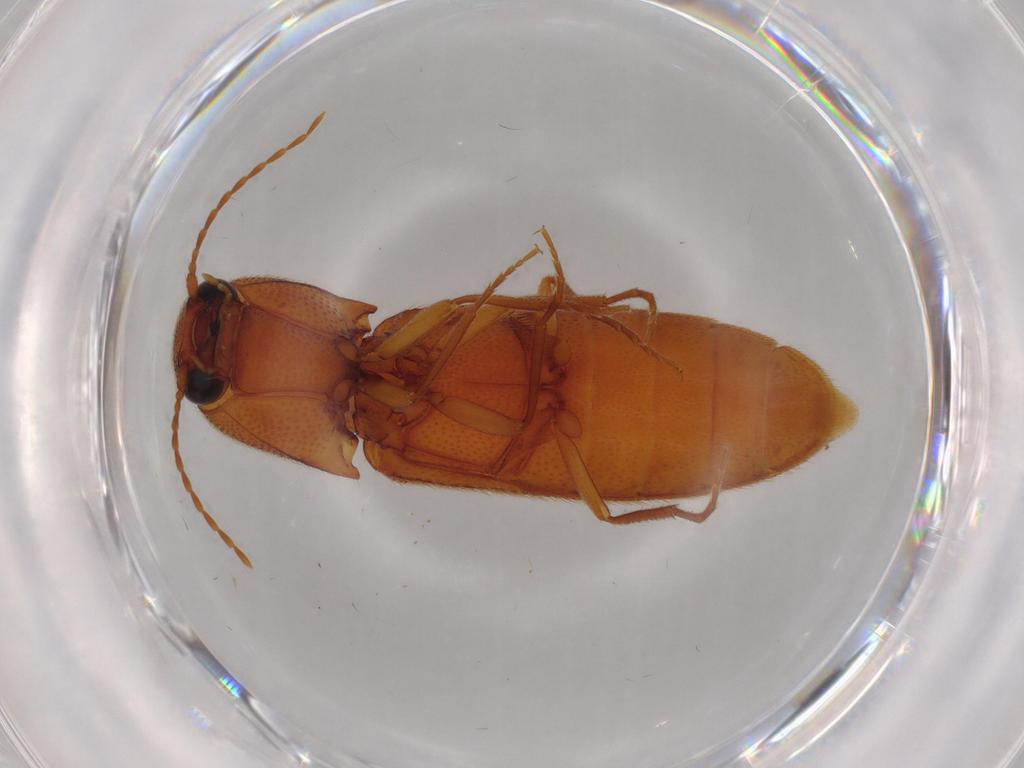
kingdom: Animalia
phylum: Arthropoda
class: Insecta
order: Coleoptera
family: Elateridae
